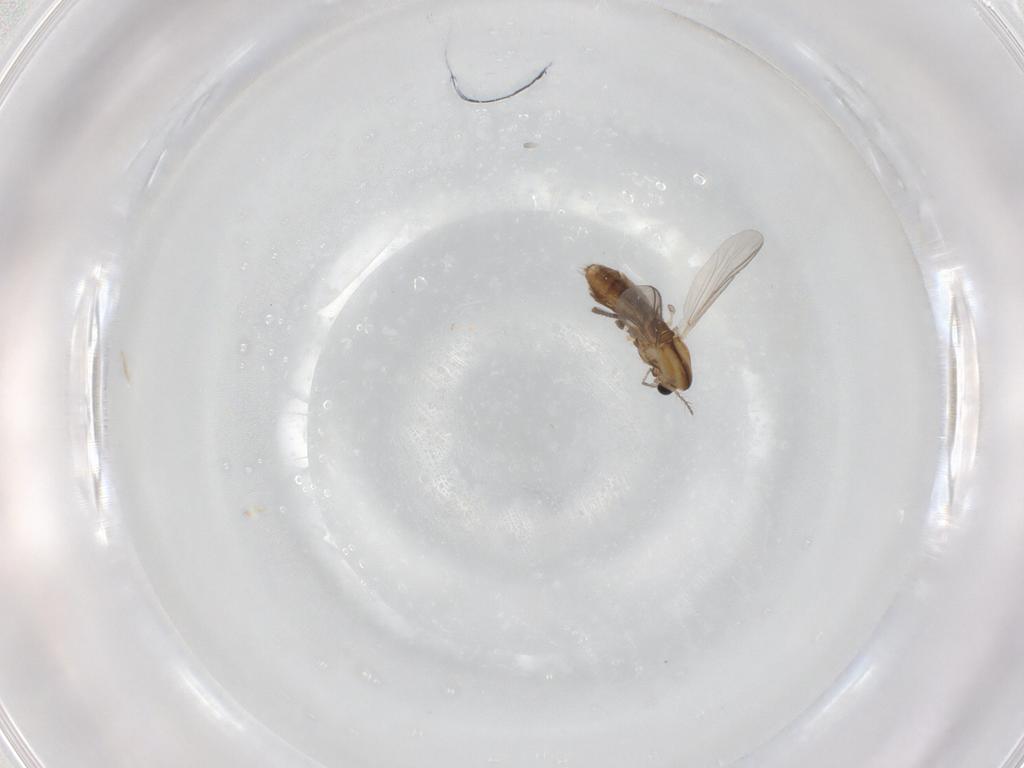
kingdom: Animalia
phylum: Arthropoda
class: Insecta
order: Diptera
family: Chironomidae
